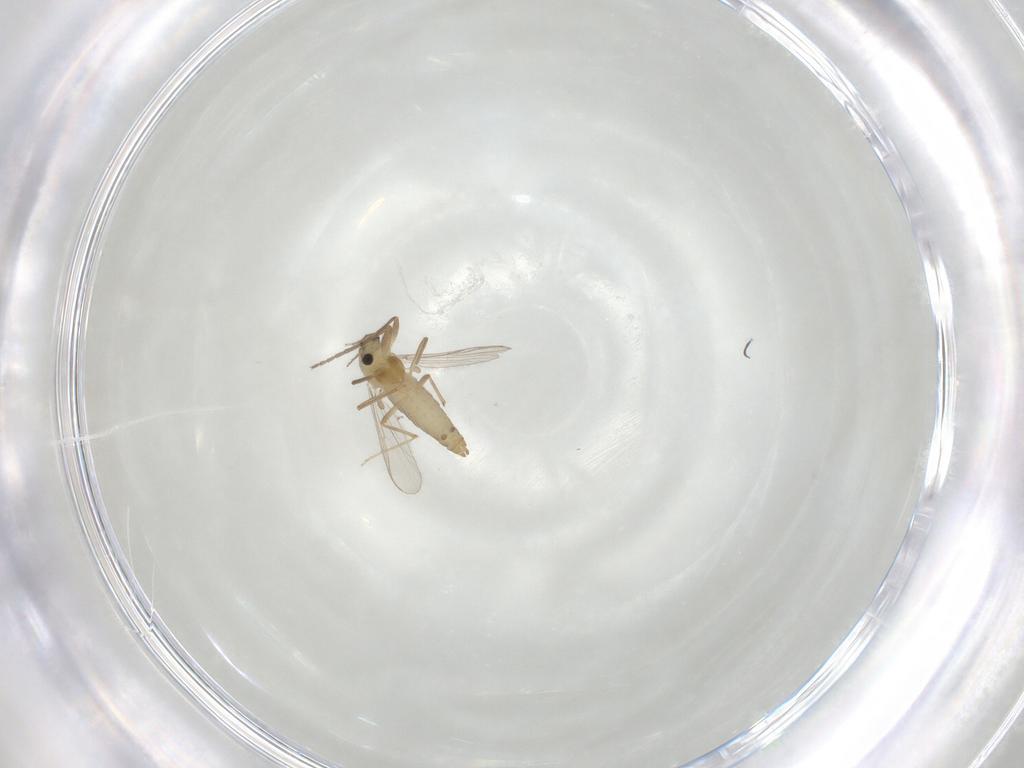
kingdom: Animalia
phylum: Arthropoda
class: Insecta
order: Diptera
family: Chironomidae
